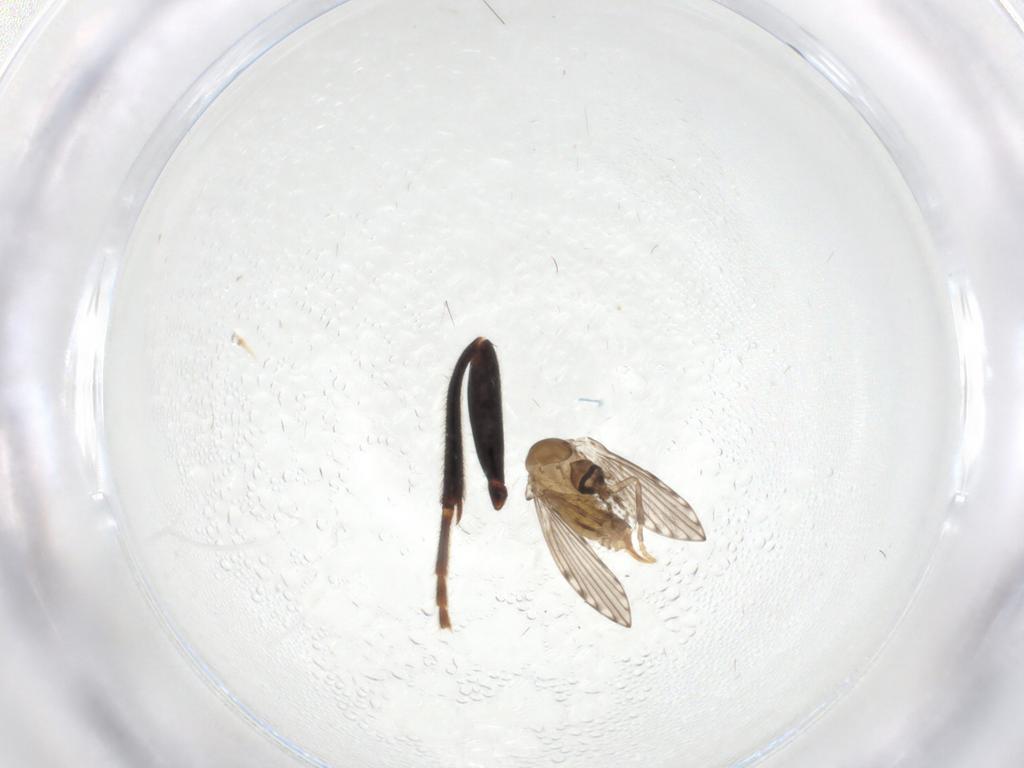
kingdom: Animalia
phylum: Arthropoda
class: Insecta
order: Diptera
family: Psychodidae
